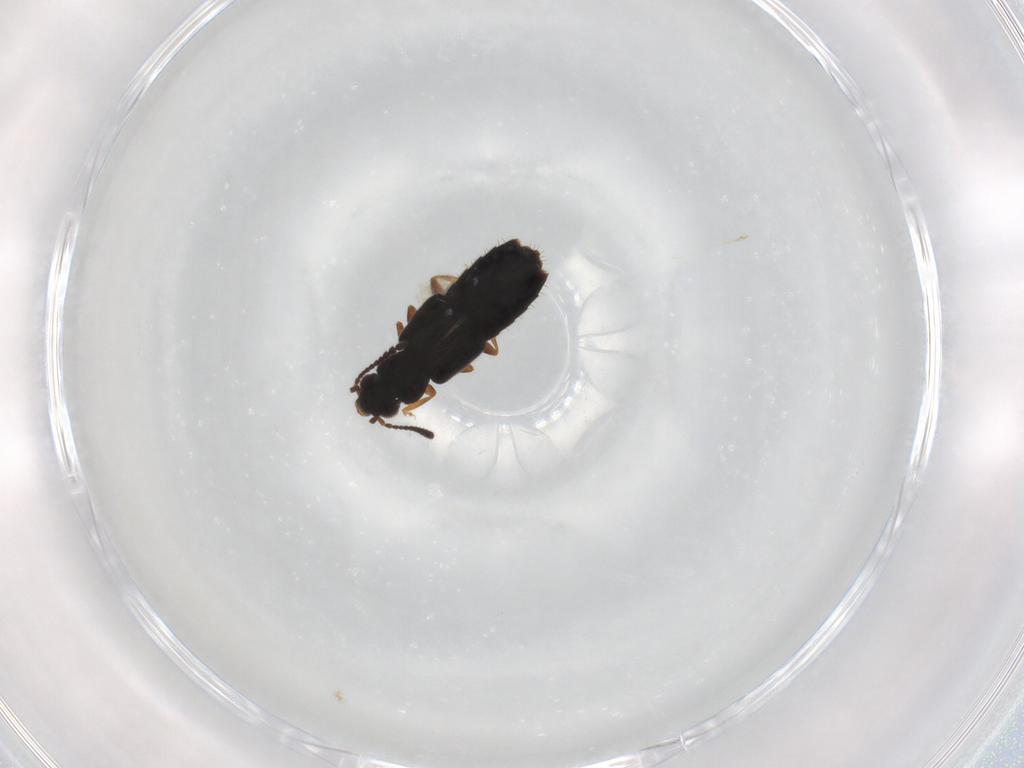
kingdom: Animalia
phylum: Arthropoda
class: Insecta
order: Coleoptera
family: Staphylinidae
